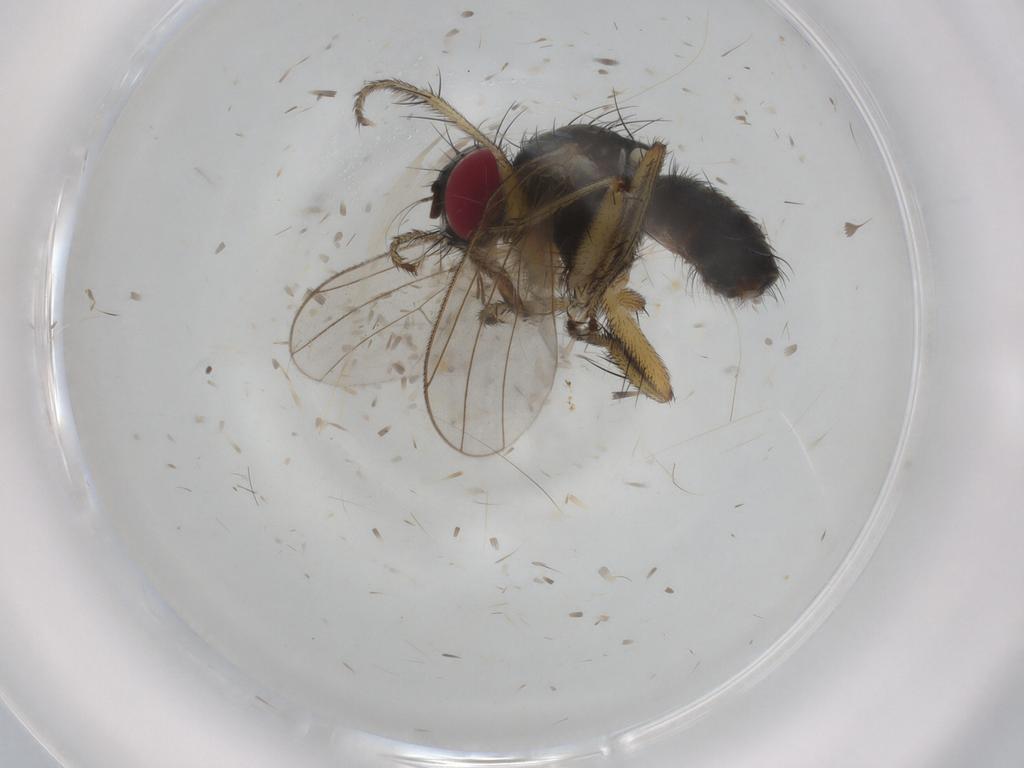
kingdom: Animalia
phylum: Arthropoda
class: Insecta
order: Diptera
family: Muscidae
